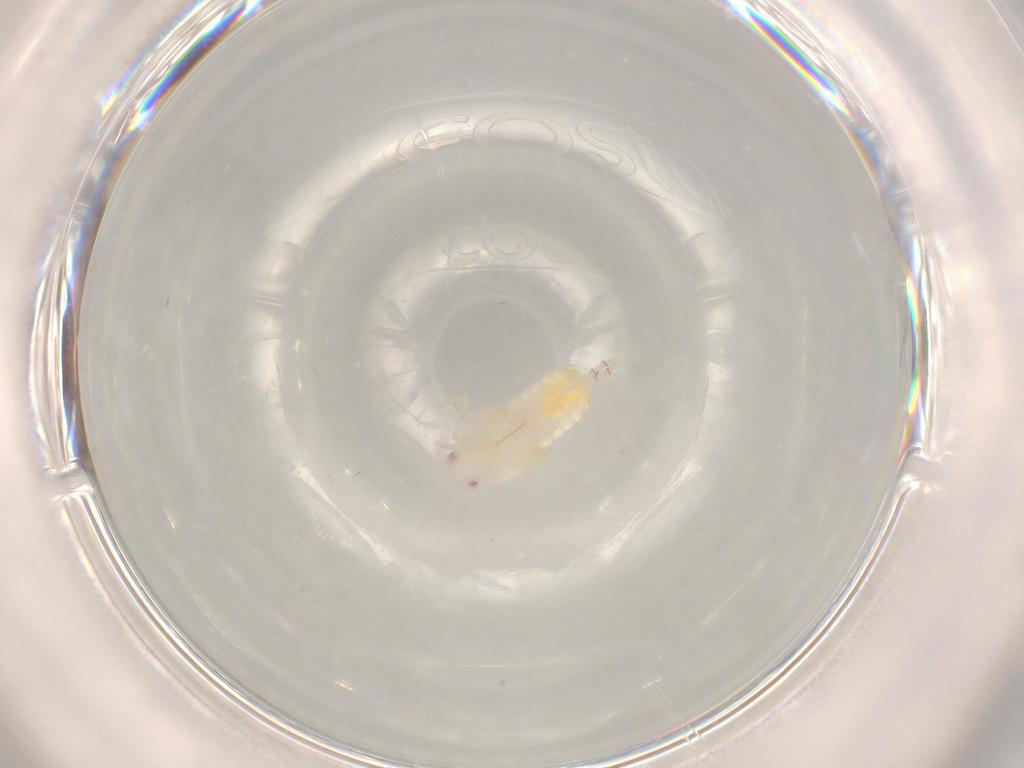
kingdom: Animalia
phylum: Arthropoda
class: Insecta
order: Hemiptera
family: Flatidae
